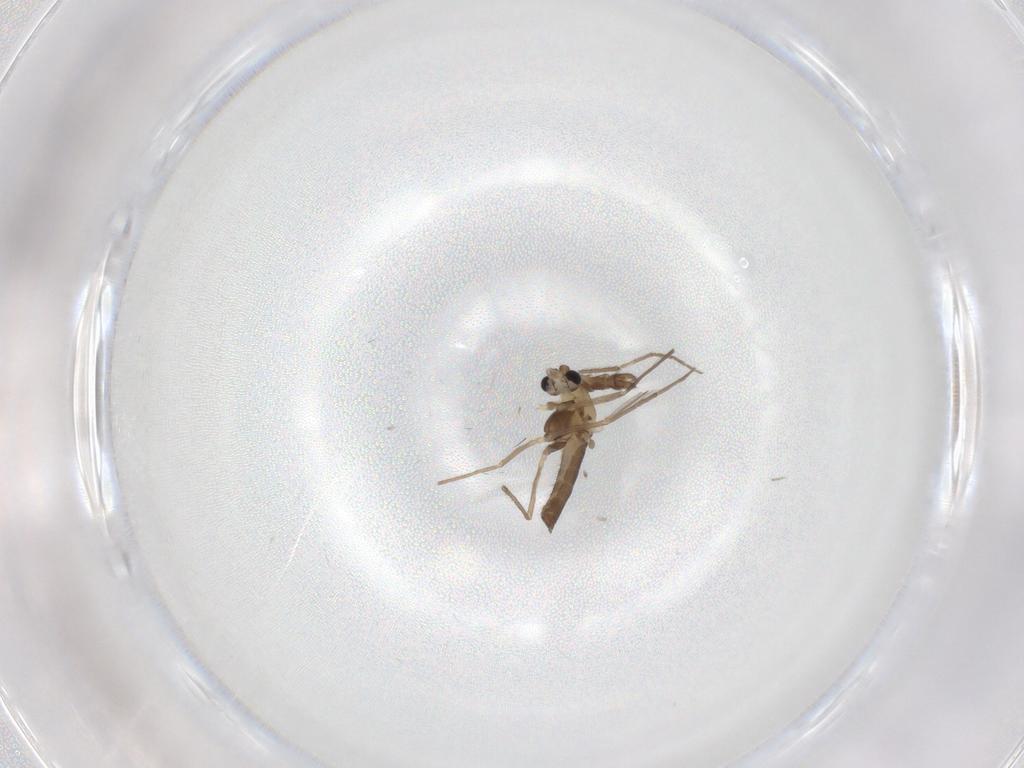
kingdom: Animalia
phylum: Arthropoda
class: Insecta
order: Diptera
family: Chironomidae
